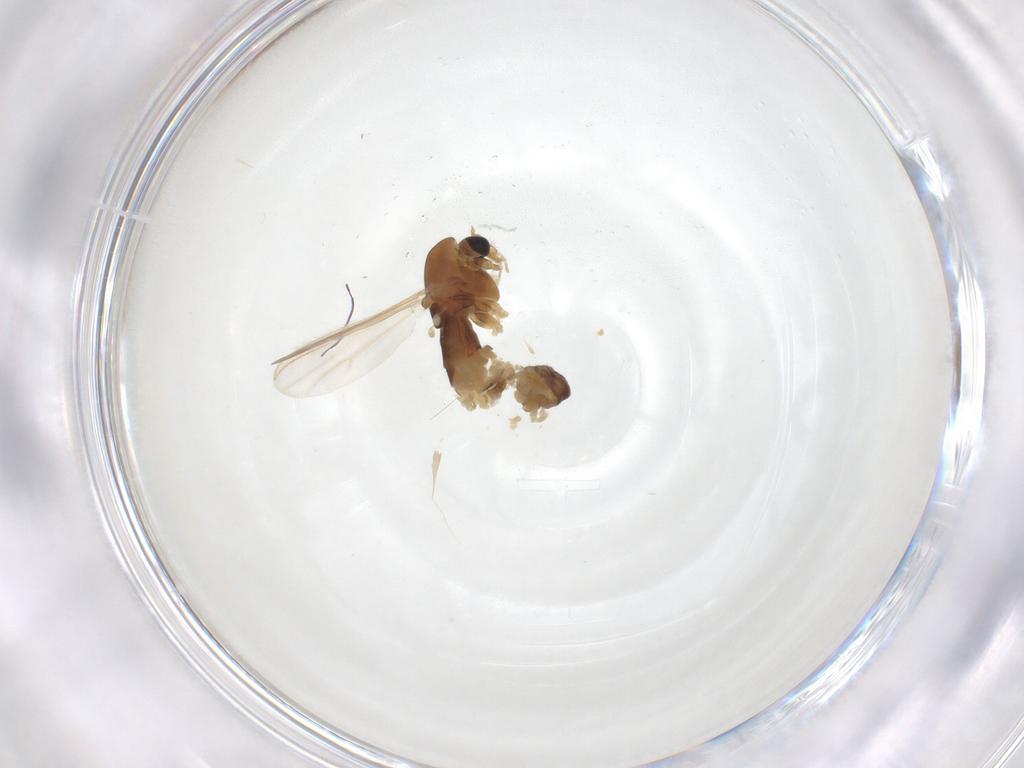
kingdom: Animalia
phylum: Arthropoda
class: Insecta
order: Diptera
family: Chironomidae
